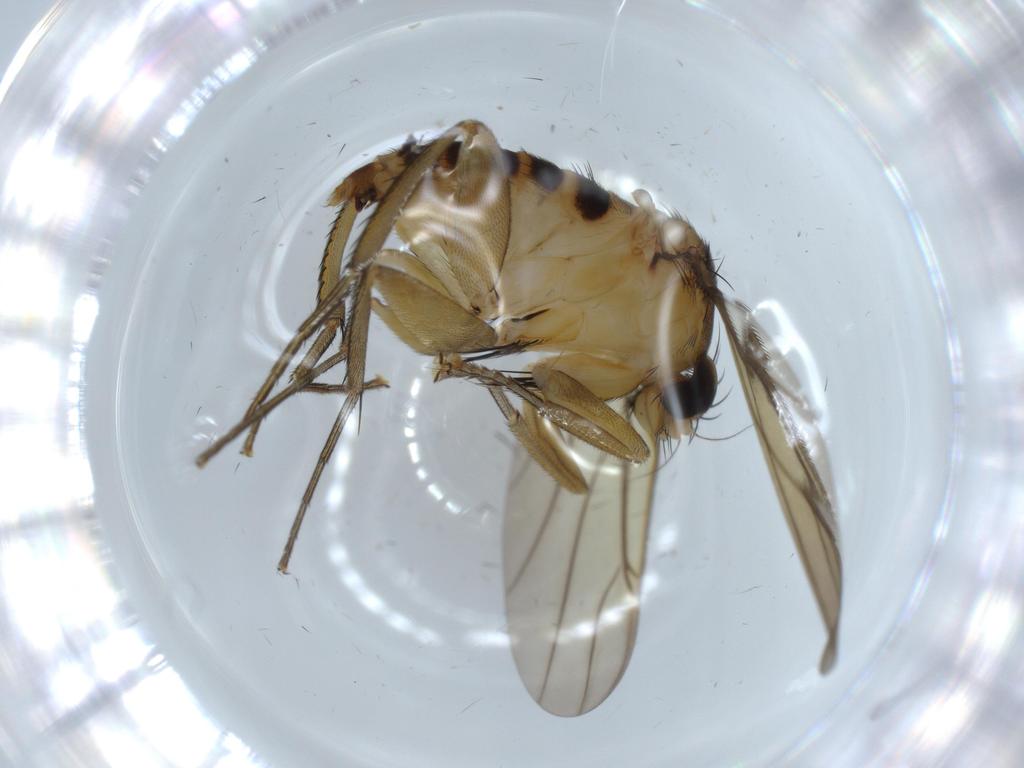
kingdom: Animalia
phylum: Arthropoda
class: Insecta
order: Diptera
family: Phoridae
